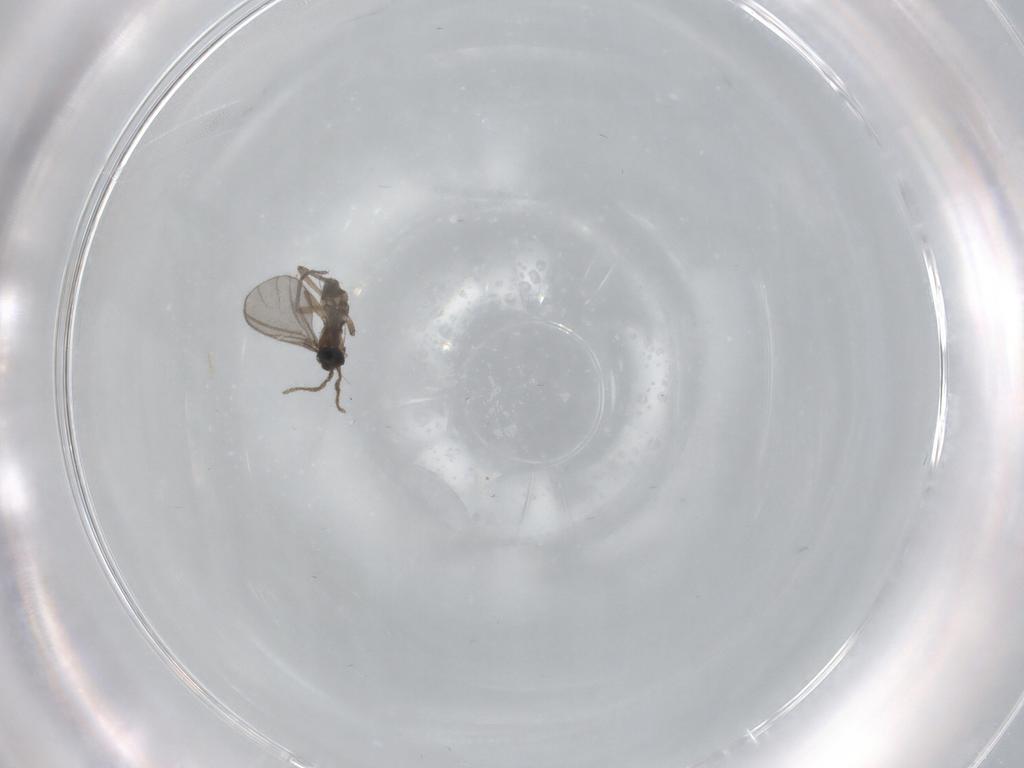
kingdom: Animalia
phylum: Arthropoda
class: Insecta
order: Diptera
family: Sciaridae
